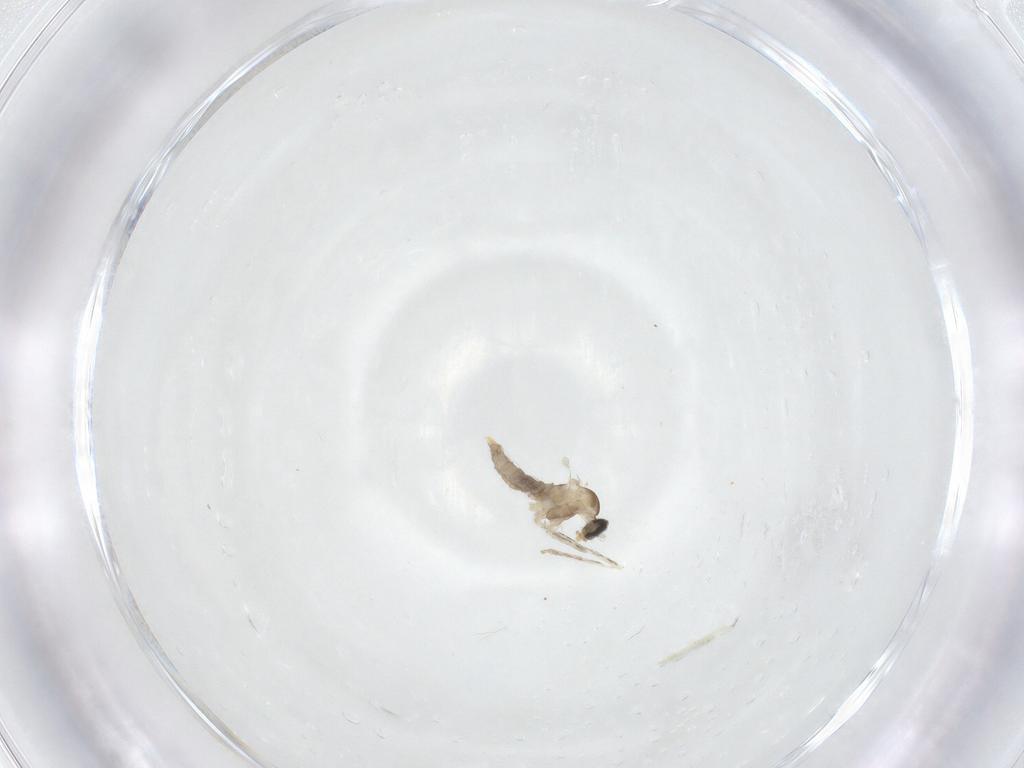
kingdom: Animalia
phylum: Arthropoda
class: Insecta
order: Diptera
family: Cecidomyiidae
